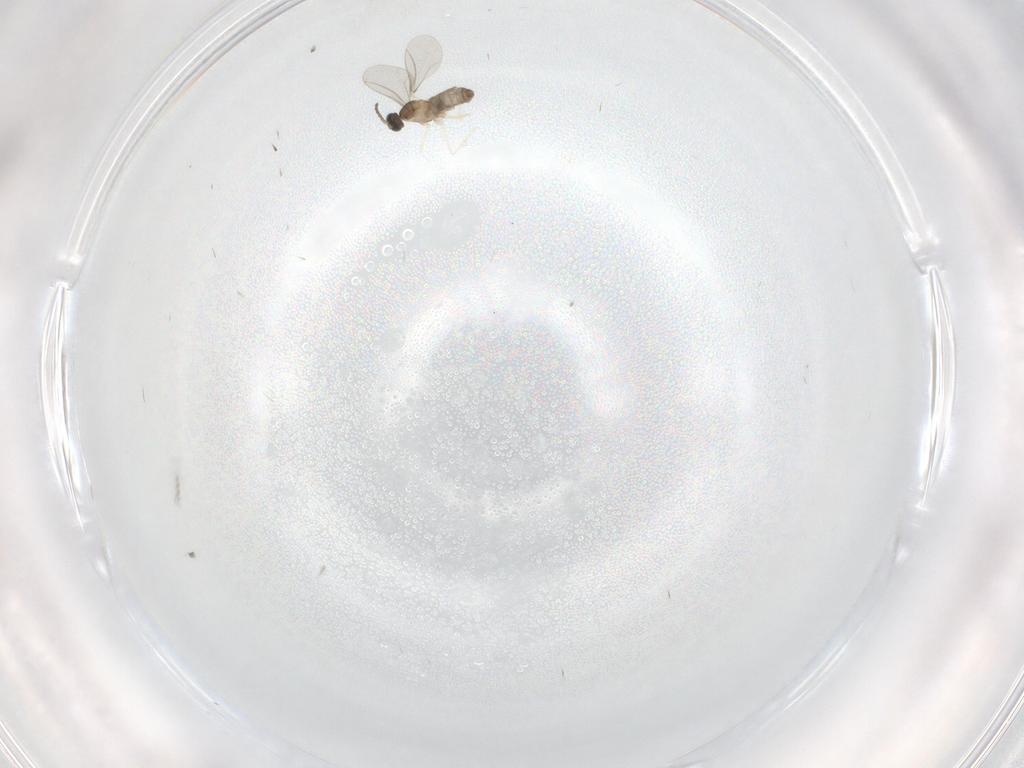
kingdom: Animalia
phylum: Arthropoda
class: Insecta
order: Diptera
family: Cecidomyiidae
